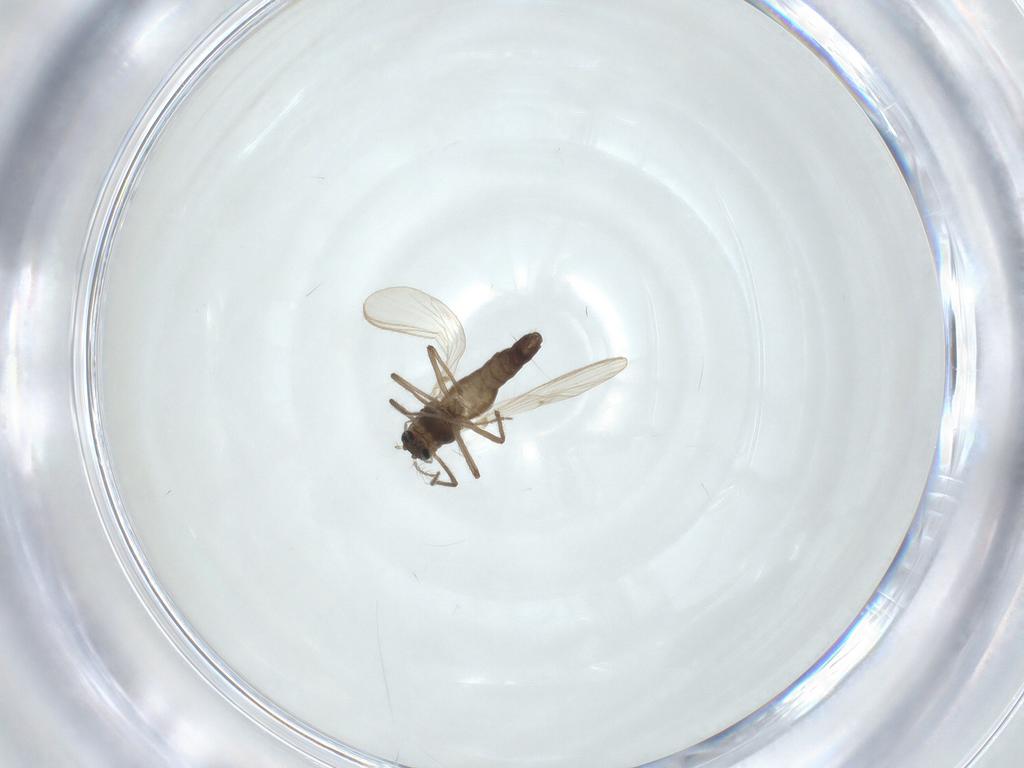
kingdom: Animalia
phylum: Arthropoda
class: Insecta
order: Diptera
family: Chironomidae
